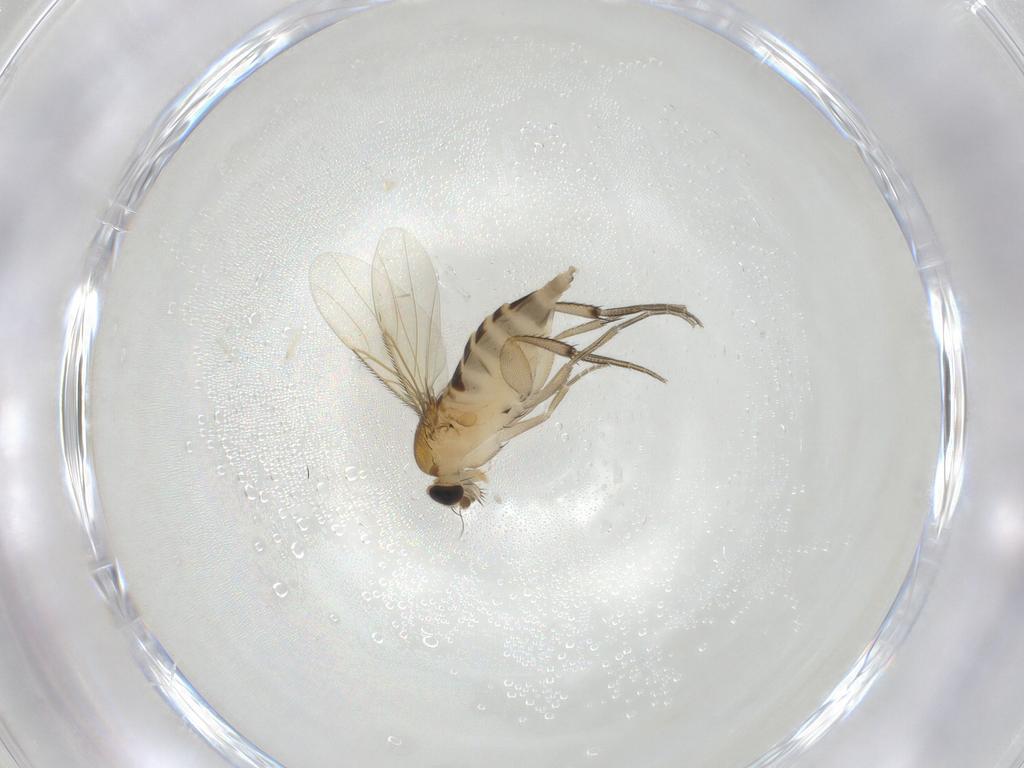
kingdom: Animalia
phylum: Arthropoda
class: Insecta
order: Diptera
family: Phoridae
